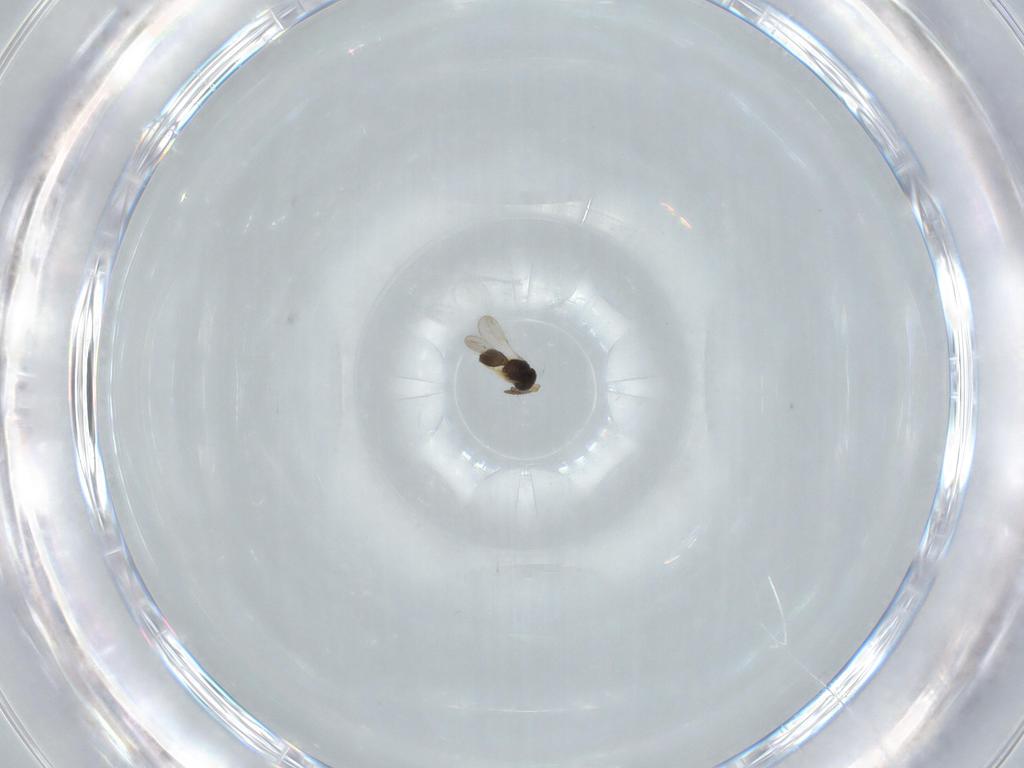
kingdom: Animalia
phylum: Arthropoda
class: Insecta
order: Hymenoptera
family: Scelionidae
